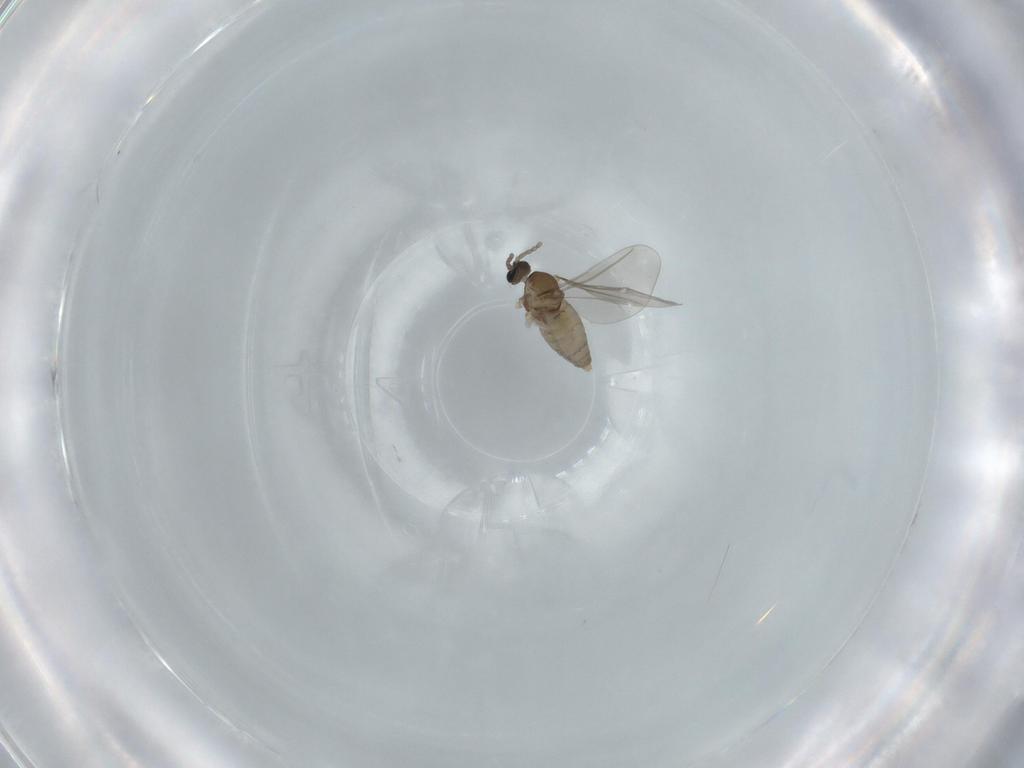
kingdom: Animalia
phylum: Arthropoda
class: Insecta
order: Diptera
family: Cecidomyiidae
